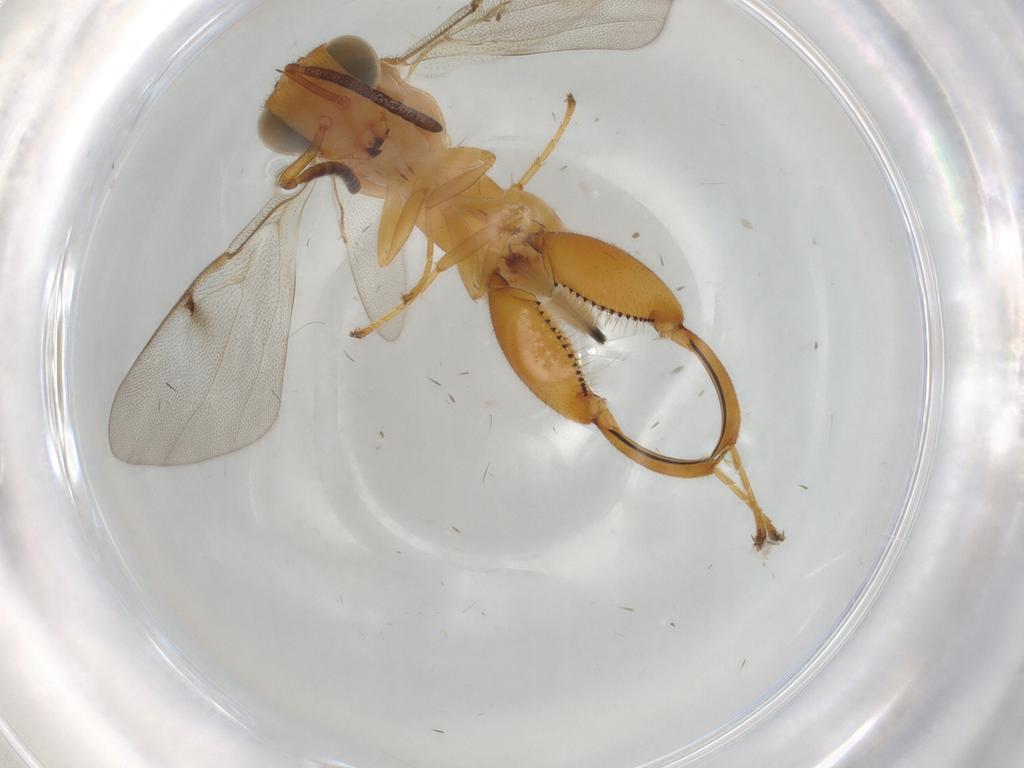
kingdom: Animalia
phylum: Arthropoda
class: Insecta
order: Hymenoptera
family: Chalcididae
